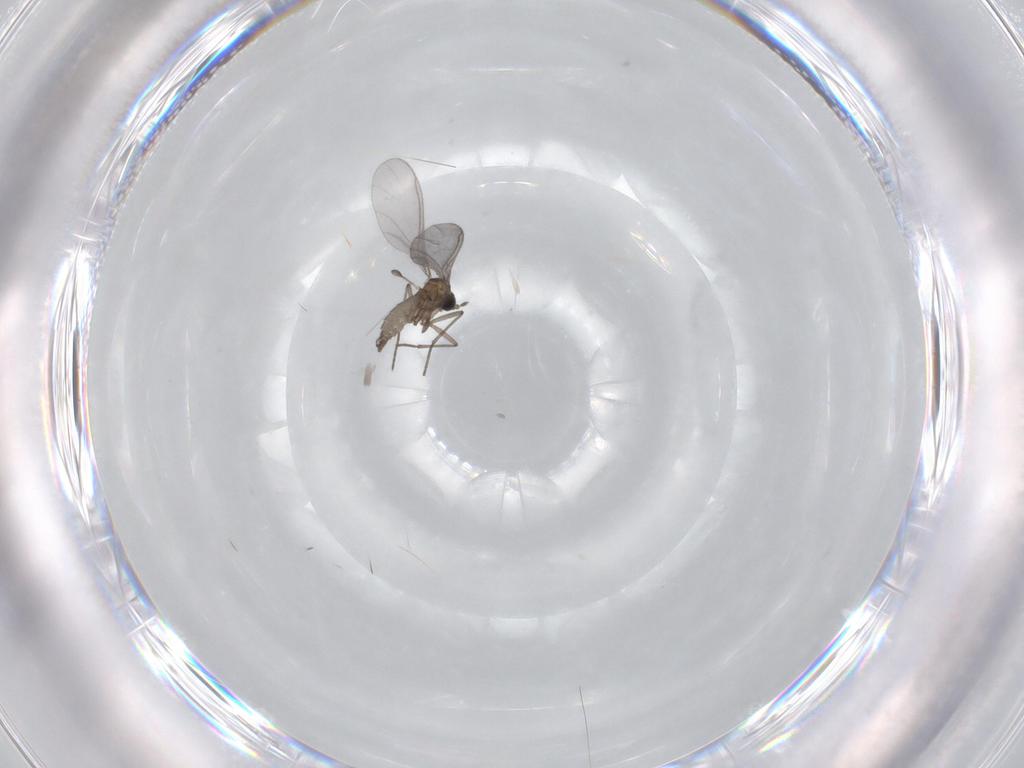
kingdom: Animalia
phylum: Arthropoda
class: Insecta
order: Diptera
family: Sciaridae
